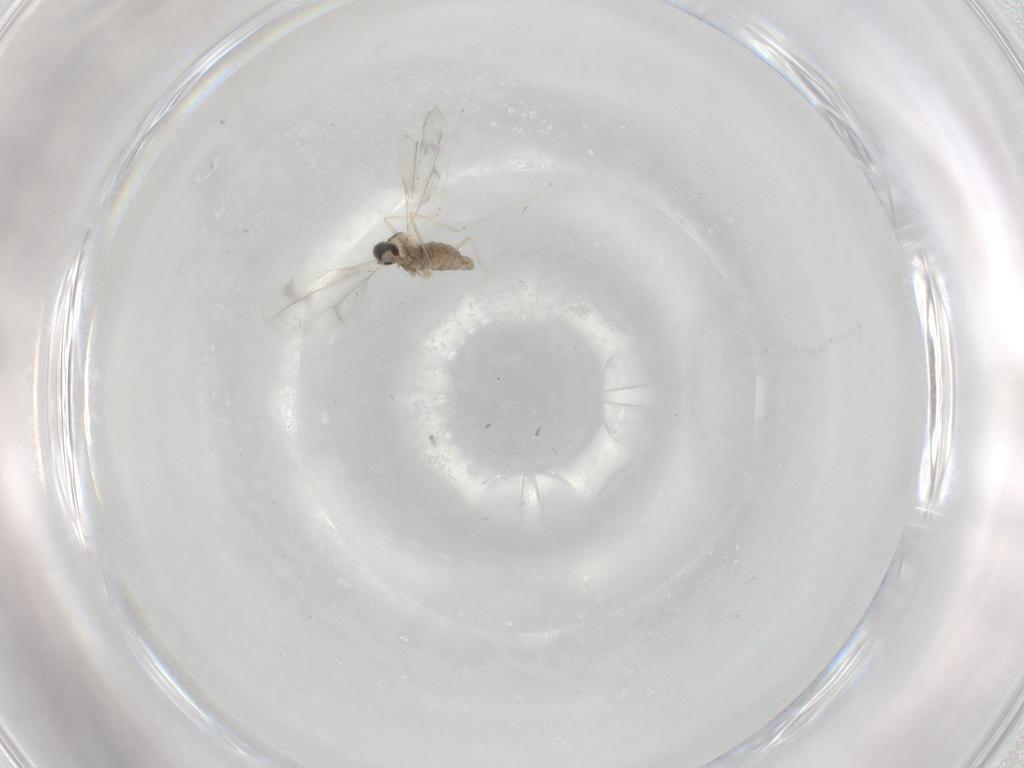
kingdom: Animalia
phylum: Arthropoda
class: Insecta
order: Diptera
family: Cecidomyiidae
